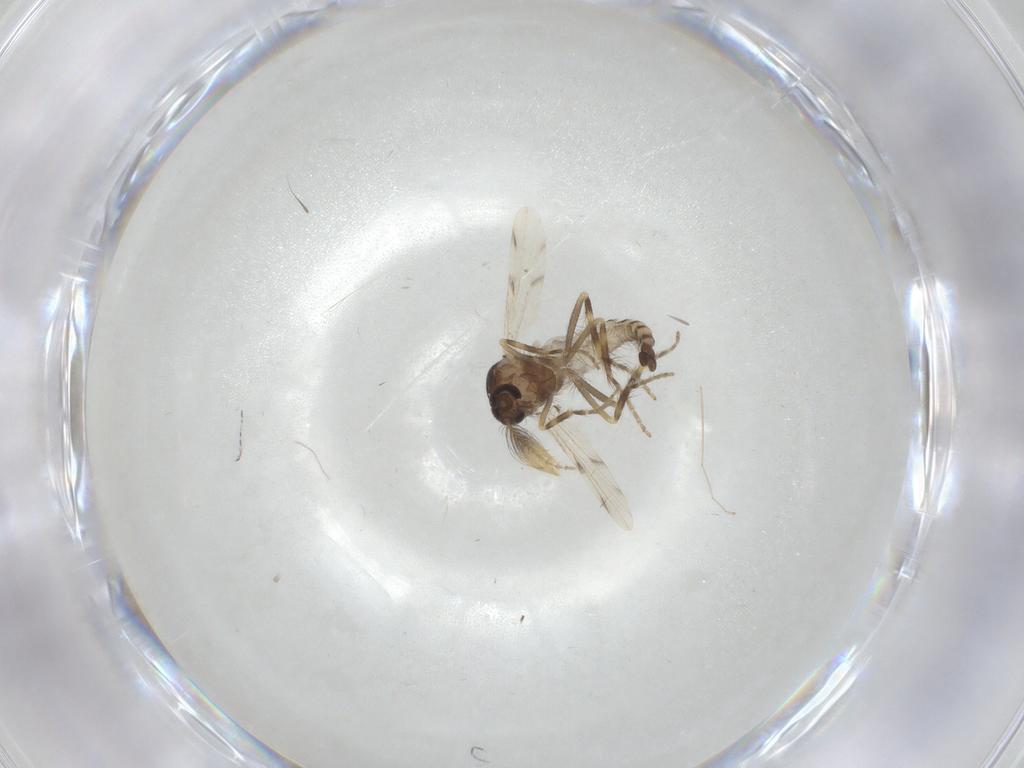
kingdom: Animalia
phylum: Arthropoda
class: Insecta
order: Diptera
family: Ceratopogonidae
